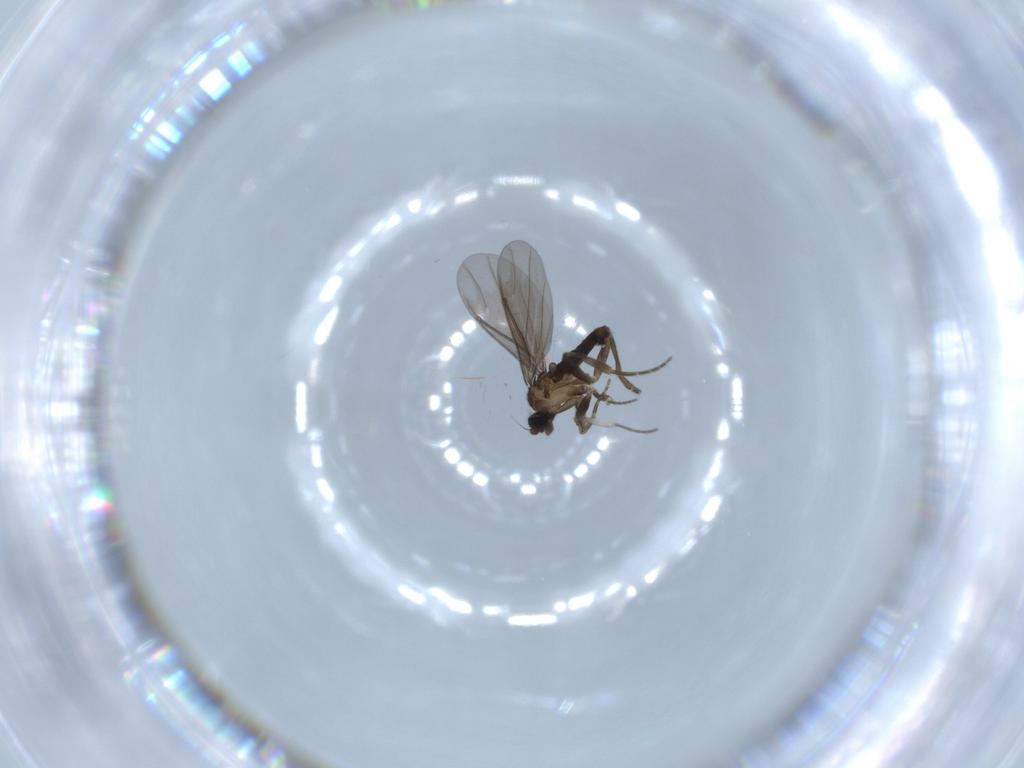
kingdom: Animalia
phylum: Arthropoda
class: Insecta
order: Diptera
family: Phoridae
